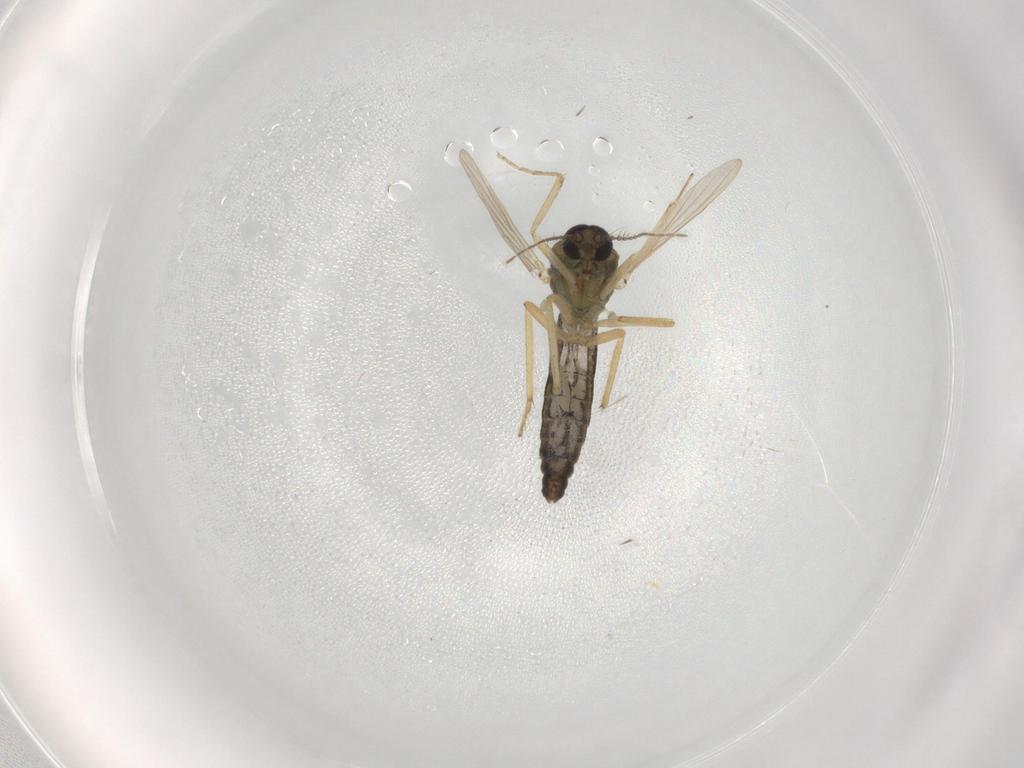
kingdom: Animalia
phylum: Arthropoda
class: Insecta
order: Diptera
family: Ceratopogonidae
